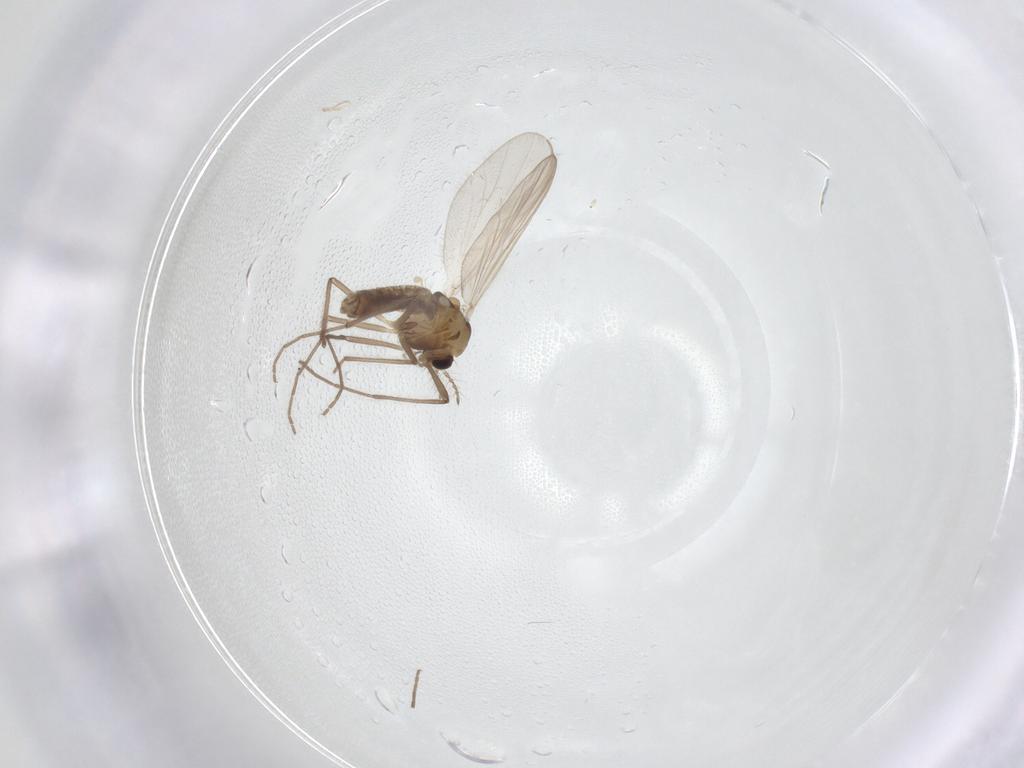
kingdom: Animalia
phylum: Arthropoda
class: Insecta
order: Diptera
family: Chironomidae
